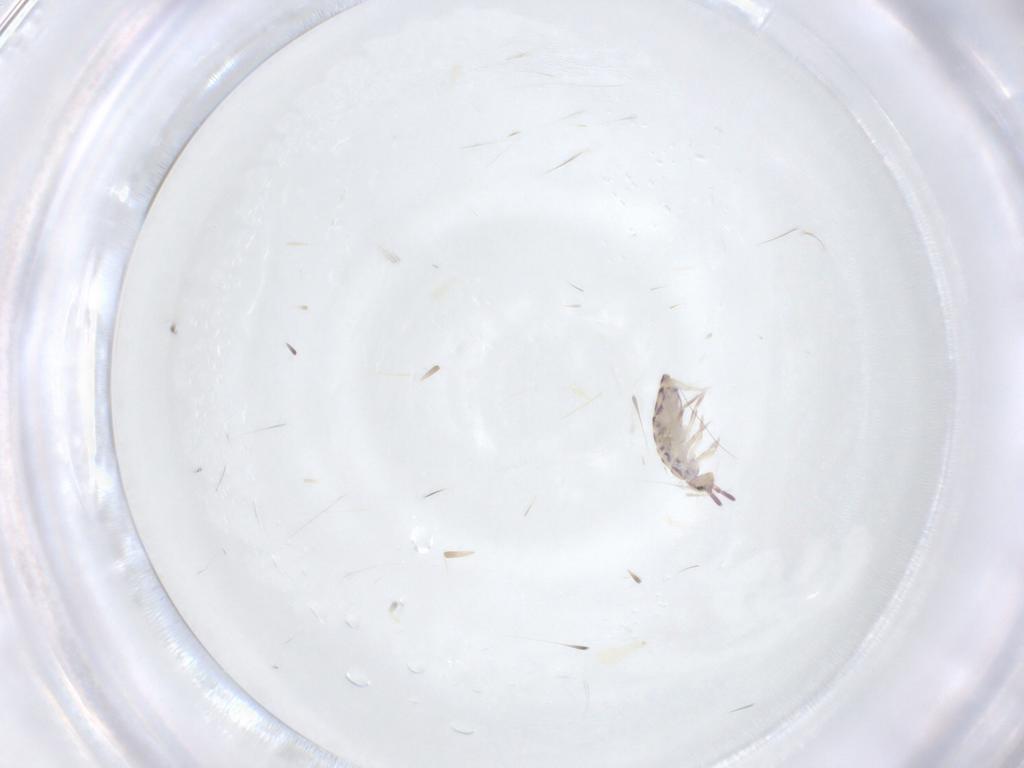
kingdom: Animalia
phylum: Arthropoda
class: Collembola
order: Entomobryomorpha
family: Entomobryidae
